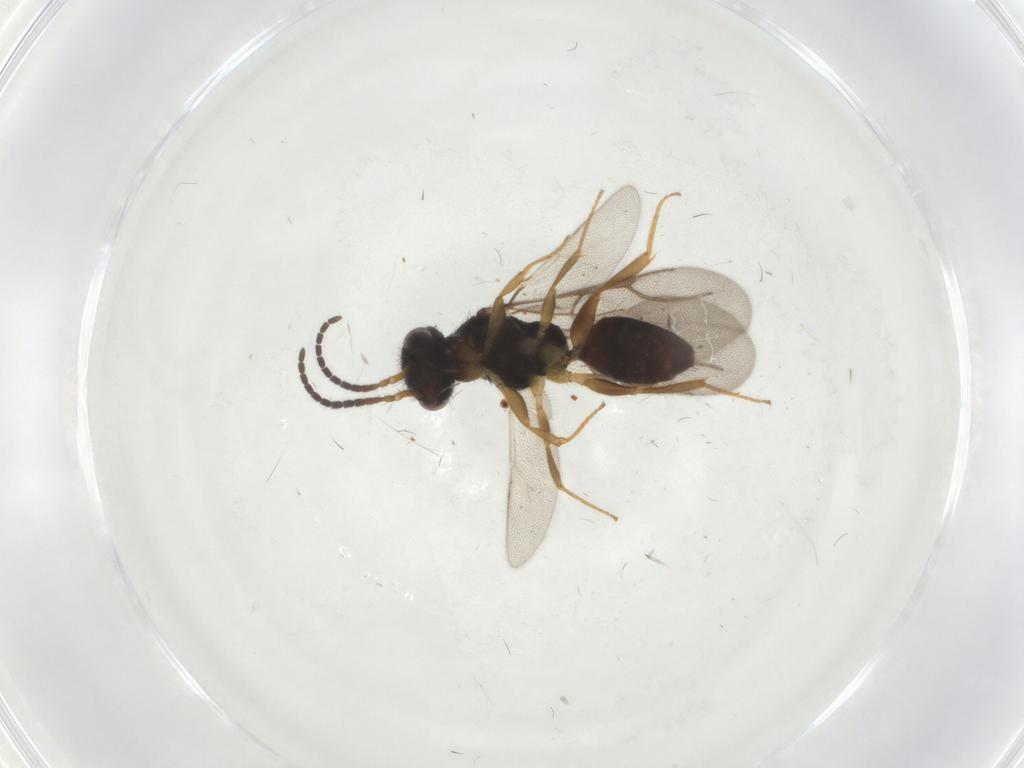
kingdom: Animalia
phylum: Arthropoda
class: Insecta
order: Hymenoptera
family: Bethylidae
